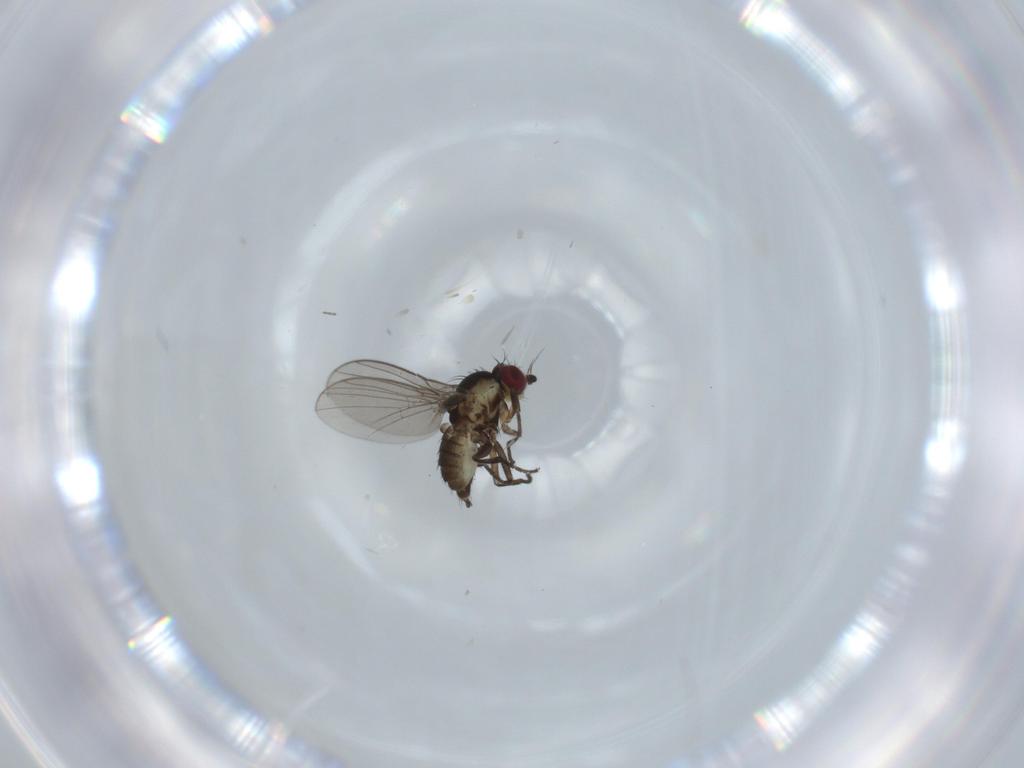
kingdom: Animalia
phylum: Arthropoda
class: Insecta
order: Diptera
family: Agromyzidae
